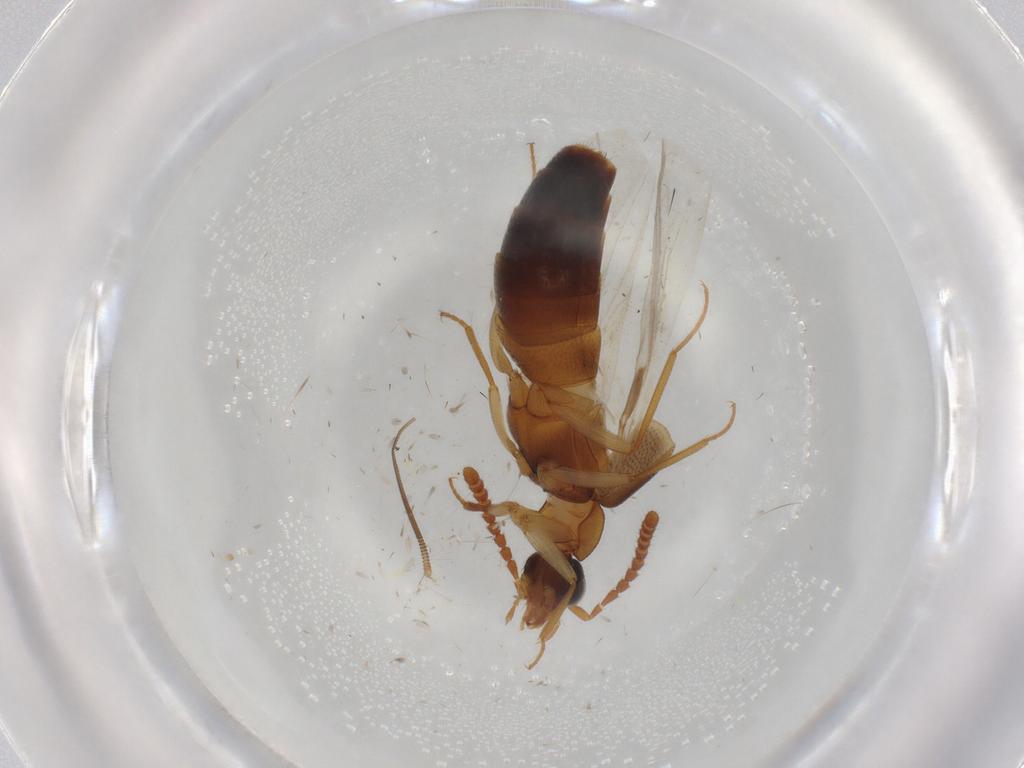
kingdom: Animalia
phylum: Arthropoda
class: Insecta
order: Coleoptera
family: Staphylinidae
